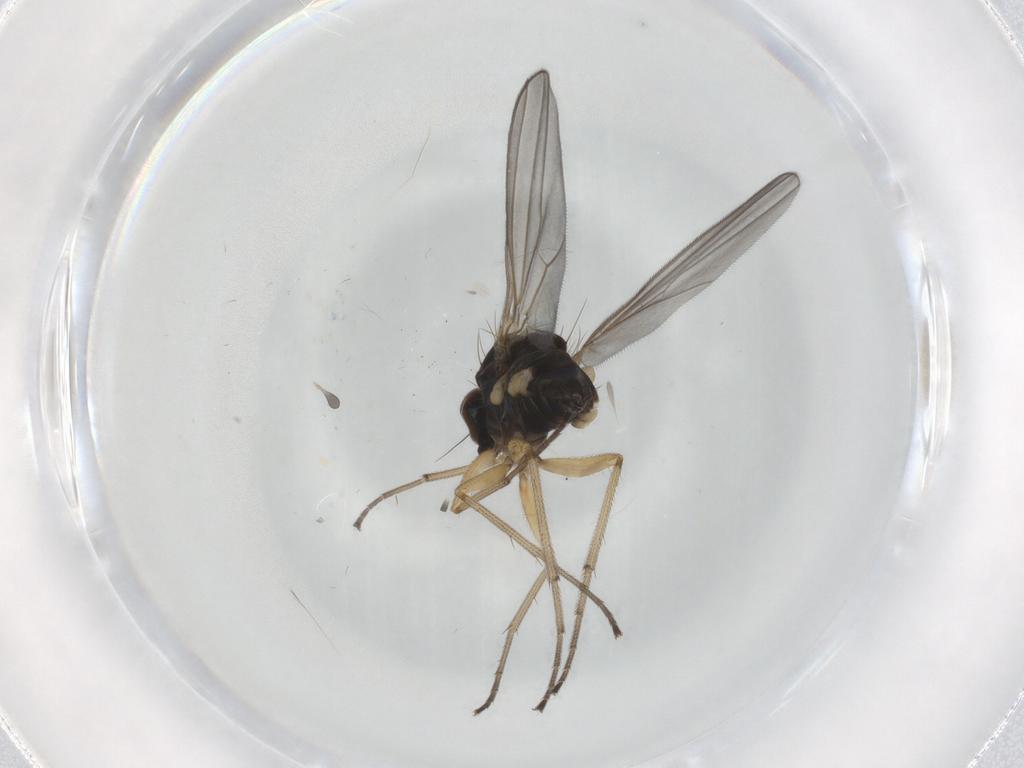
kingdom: Animalia
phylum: Arthropoda
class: Insecta
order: Diptera
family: Dolichopodidae
